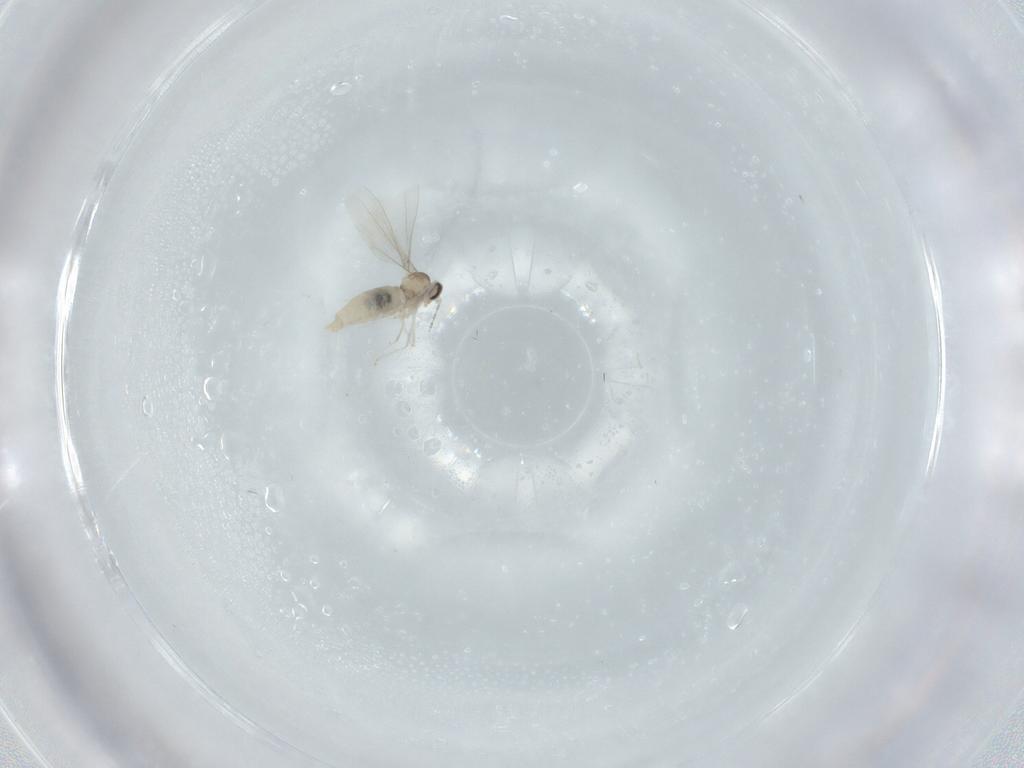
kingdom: Animalia
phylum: Arthropoda
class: Insecta
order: Diptera
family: Cecidomyiidae
